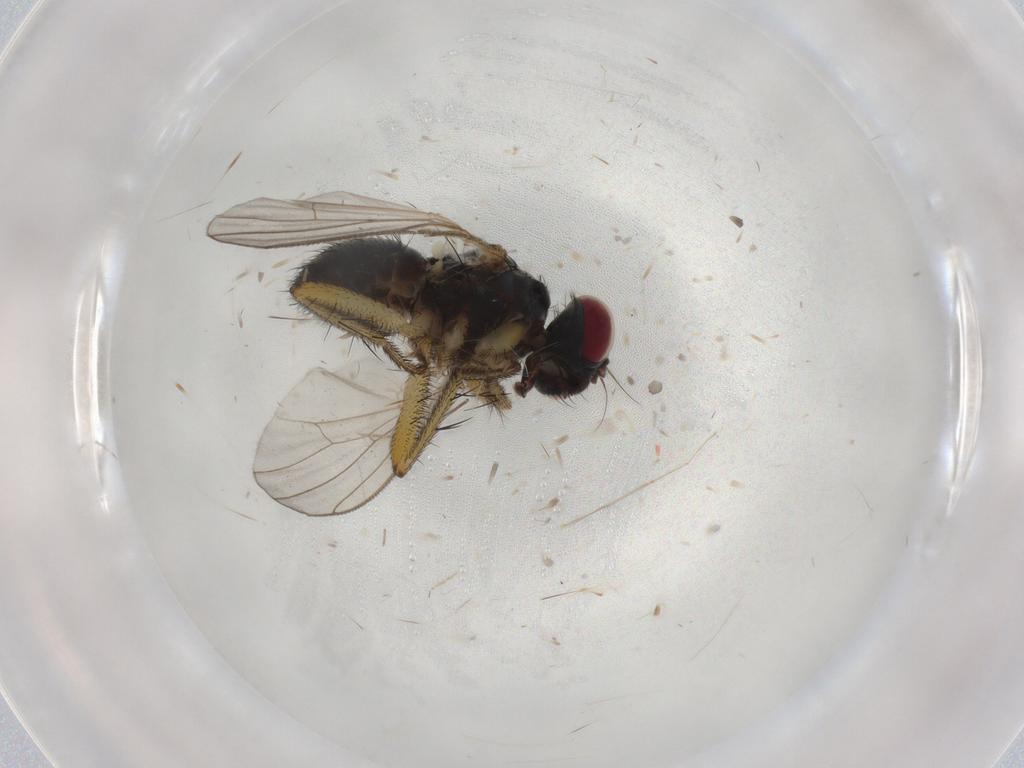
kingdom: Animalia
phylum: Arthropoda
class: Insecta
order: Diptera
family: Muscidae
